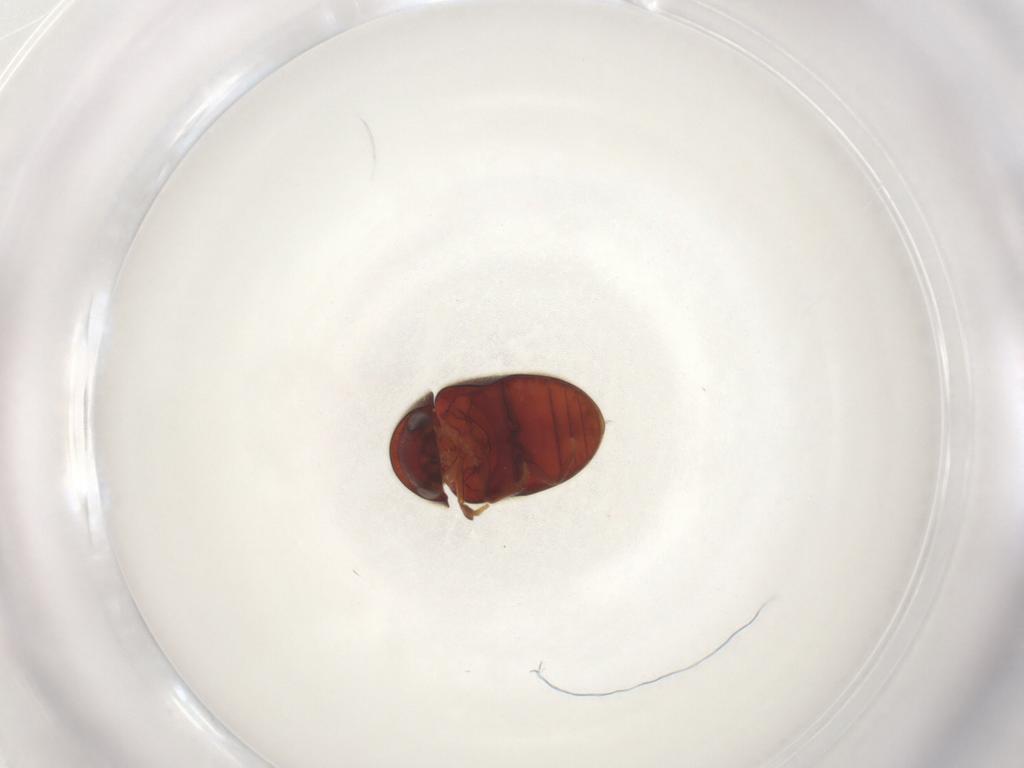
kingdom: Animalia
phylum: Arthropoda
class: Insecta
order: Coleoptera
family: Ptinidae
